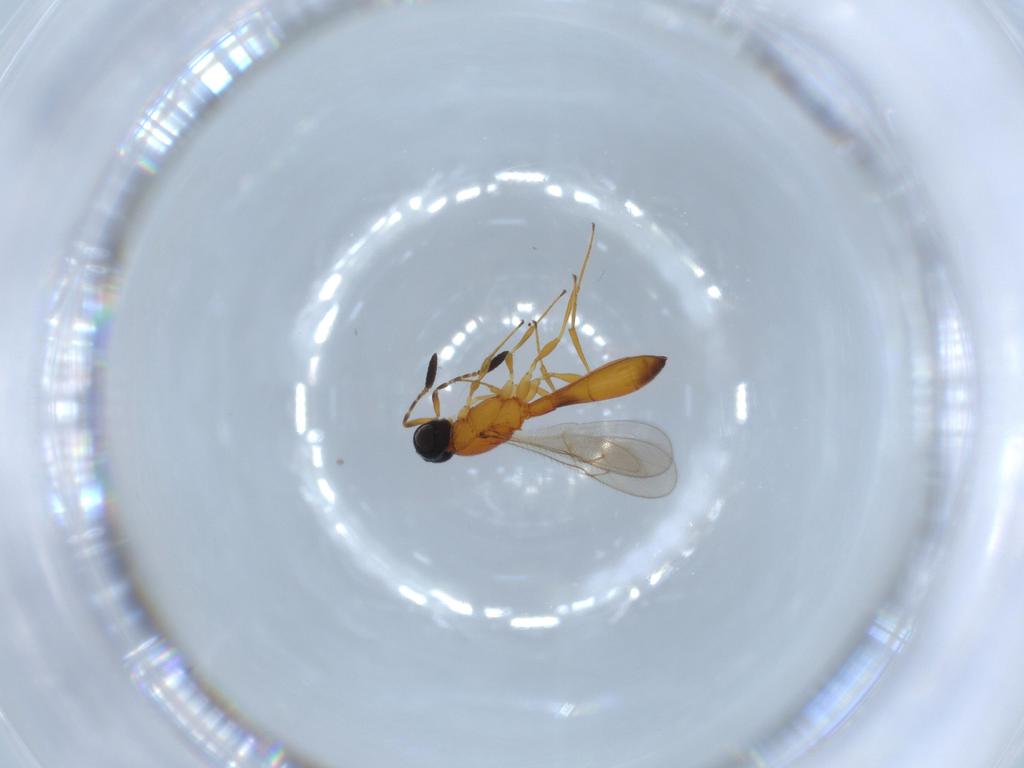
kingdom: Animalia
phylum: Arthropoda
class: Insecta
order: Hymenoptera
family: Scelionidae
